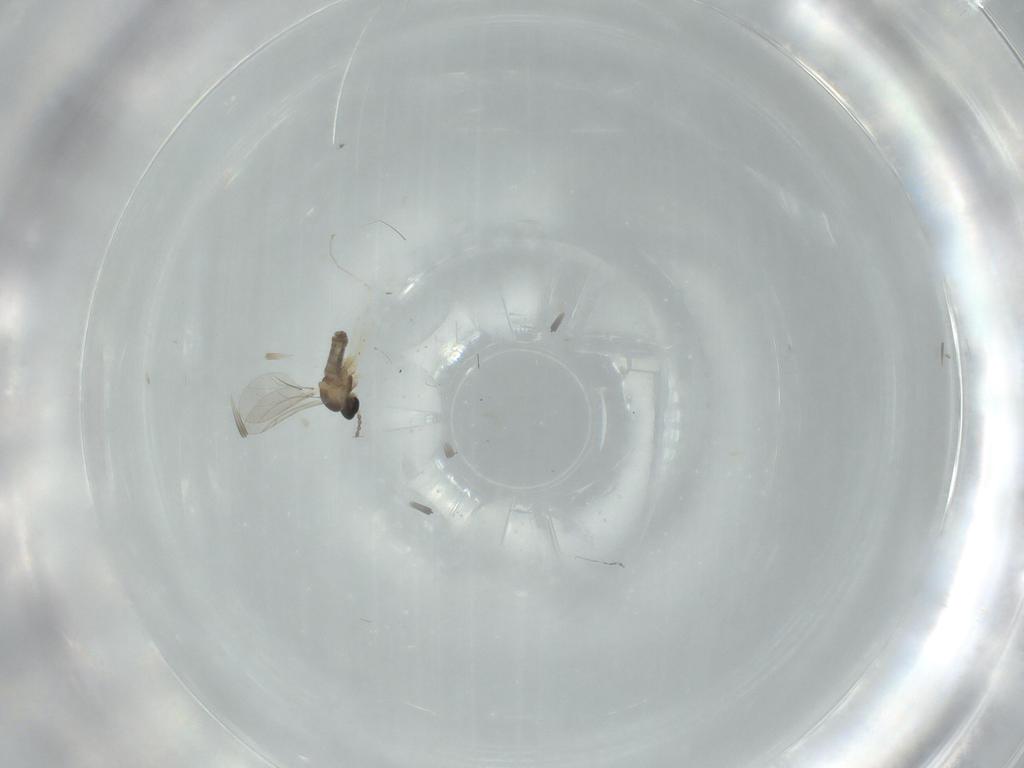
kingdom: Animalia
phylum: Arthropoda
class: Insecta
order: Diptera
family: Cecidomyiidae
